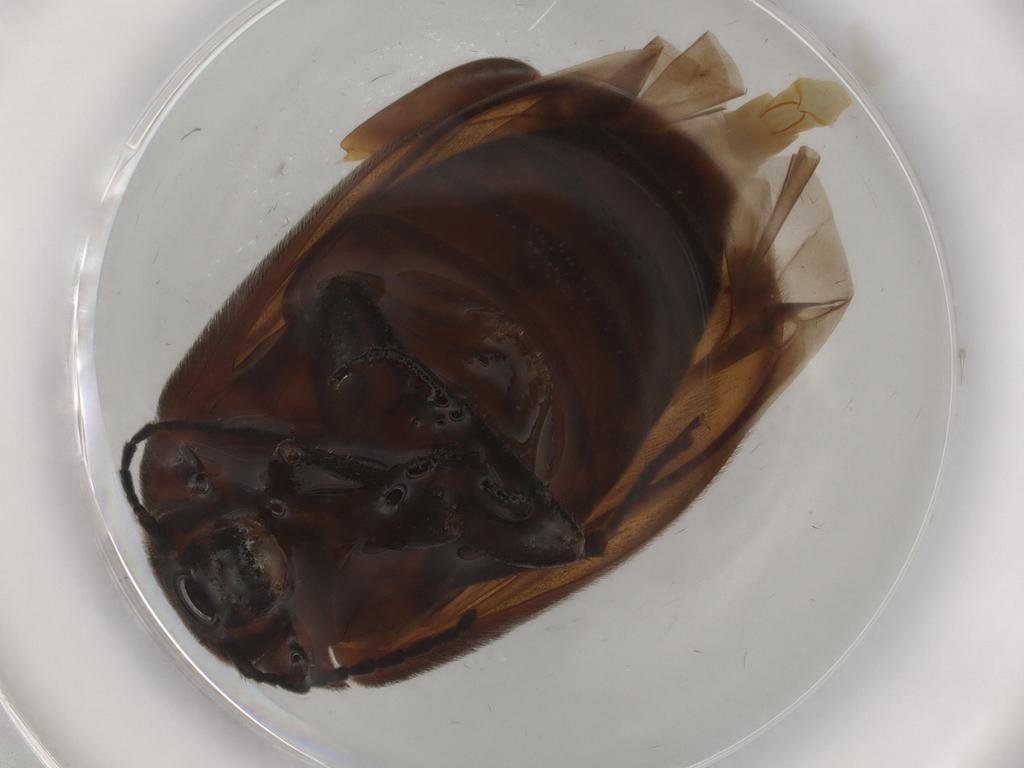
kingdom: Animalia
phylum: Arthropoda
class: Insecta
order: Coleoptera
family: Scraptiidae
